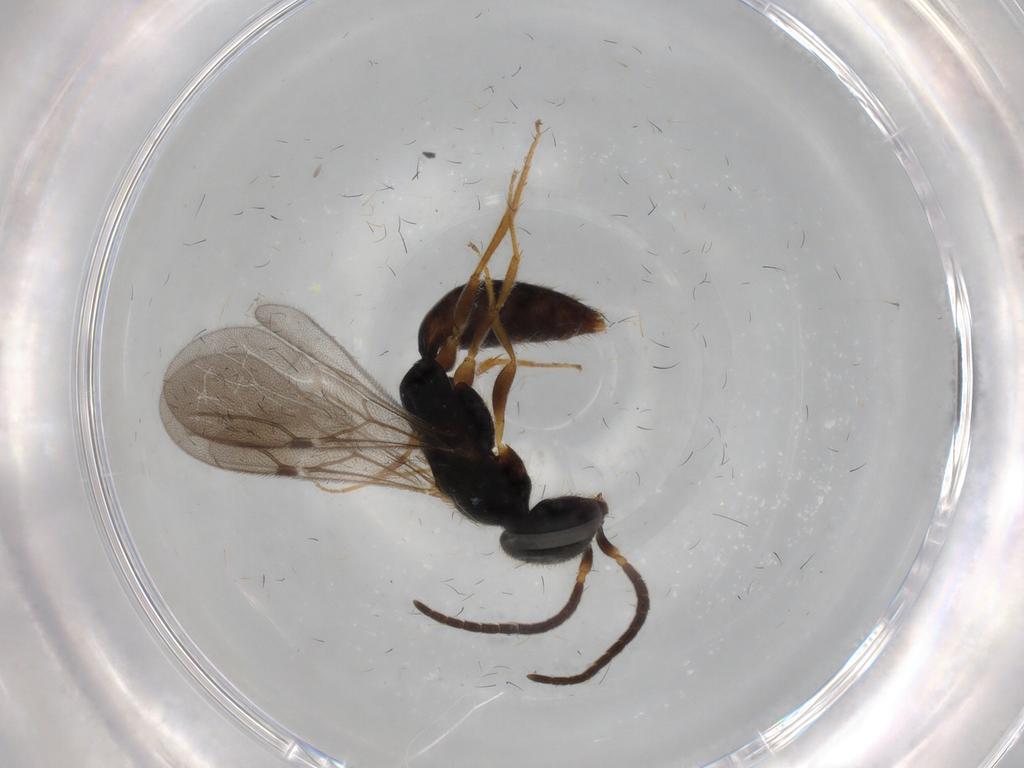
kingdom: Animalia
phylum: Arthropoda
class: Insecta
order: Hymenoptera
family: Bethylidae
